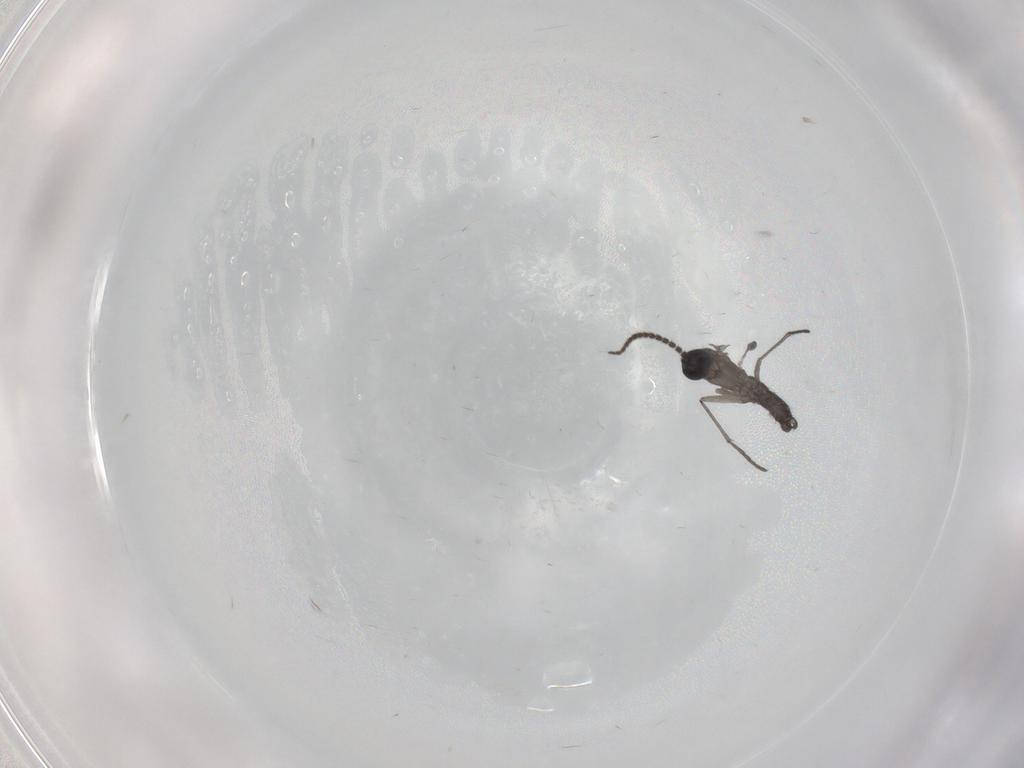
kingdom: Animalia
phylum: Arthropoda
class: Insecta
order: Diptera
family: Sciaridae
